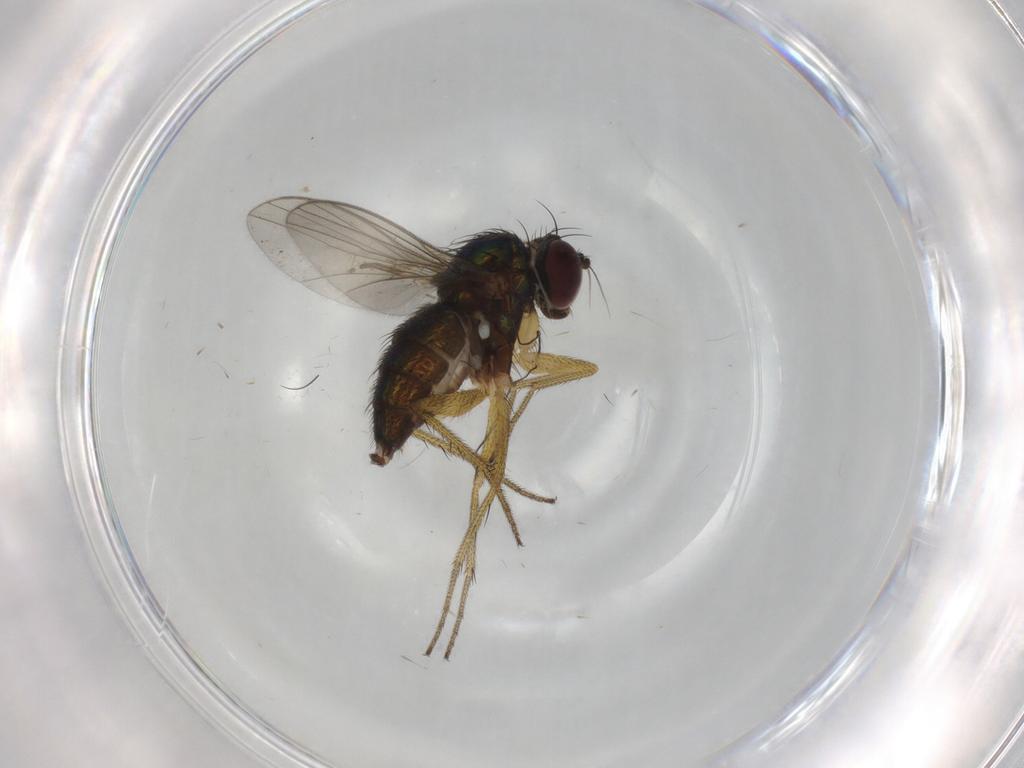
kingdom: Animalia
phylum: Arthropoda
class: Insecta
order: Diptera
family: Dolichopodidae
